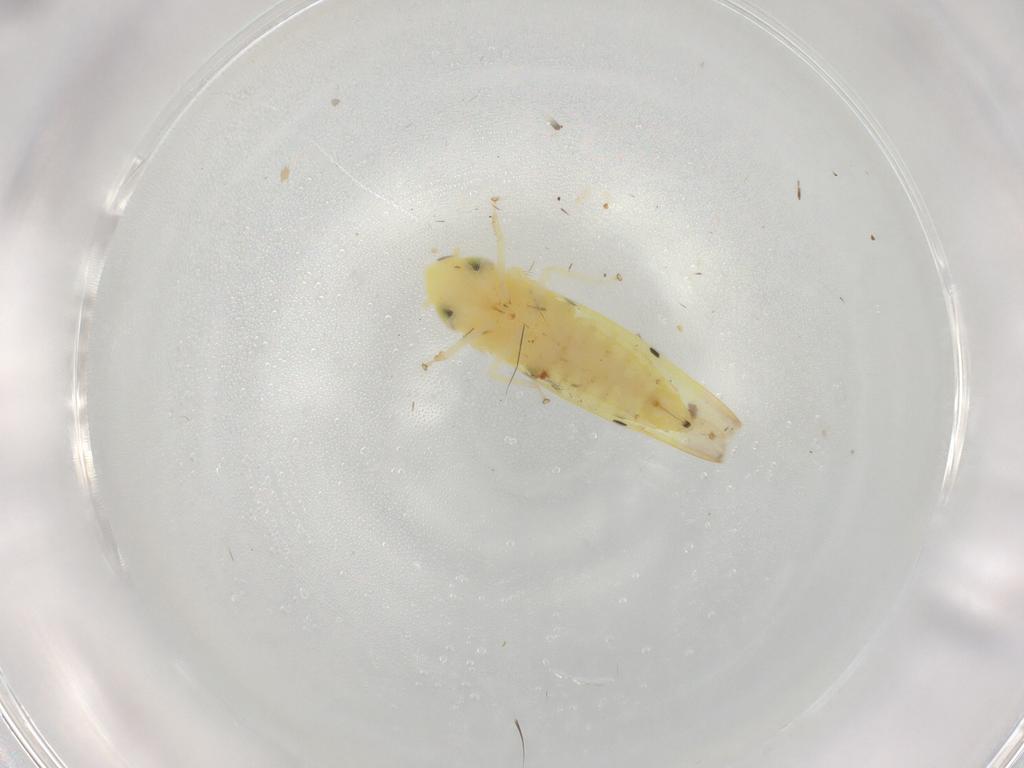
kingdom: Animalia
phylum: Arthropoda
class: Insecta
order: Hemiptera
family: Cicadellidae
